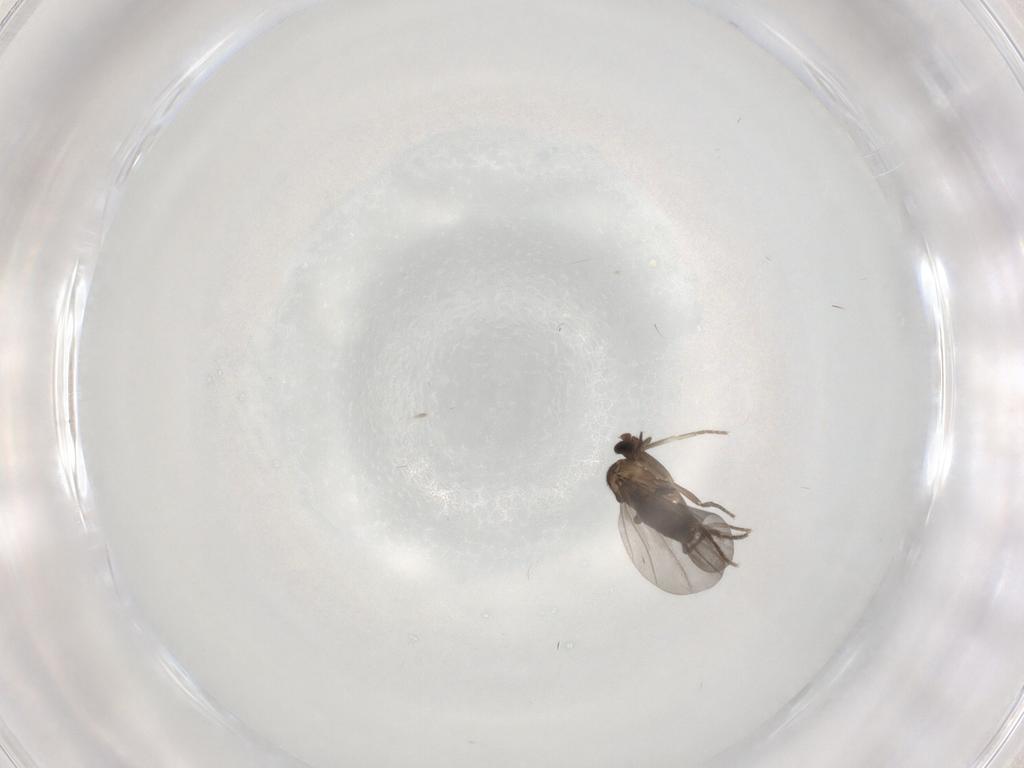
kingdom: Animalia
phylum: Arthropoda
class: Insecta
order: Diptera
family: Phoridae
